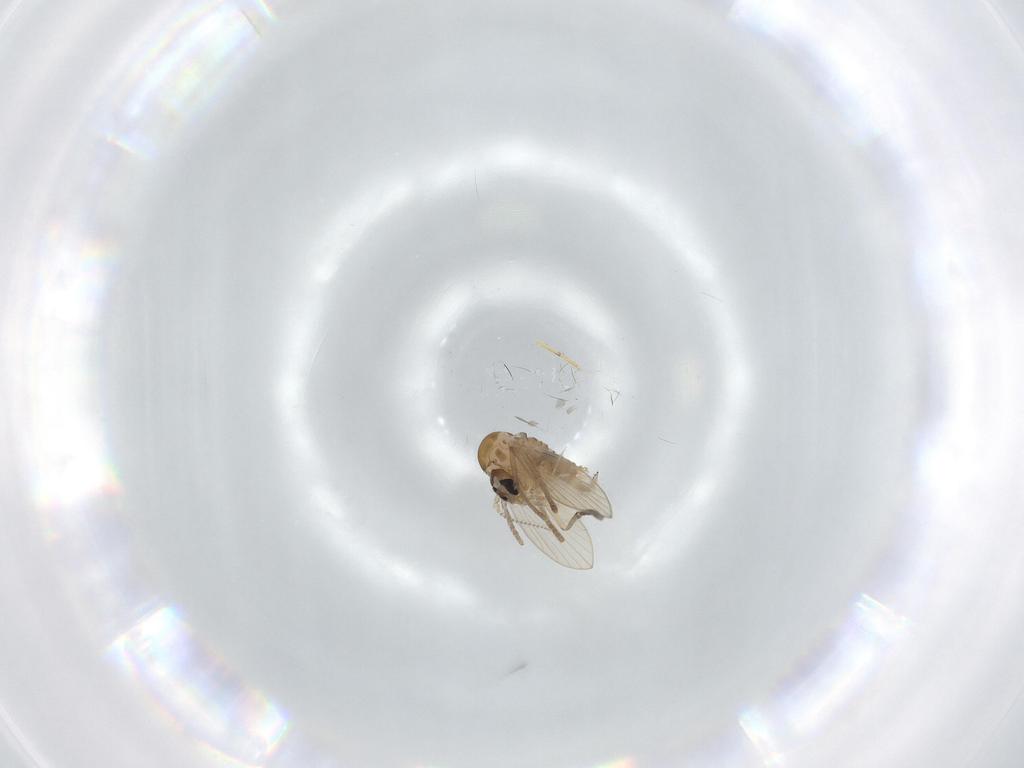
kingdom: Animalia
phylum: Arthropoda
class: Insecta
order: Diptera
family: Psychodidae
